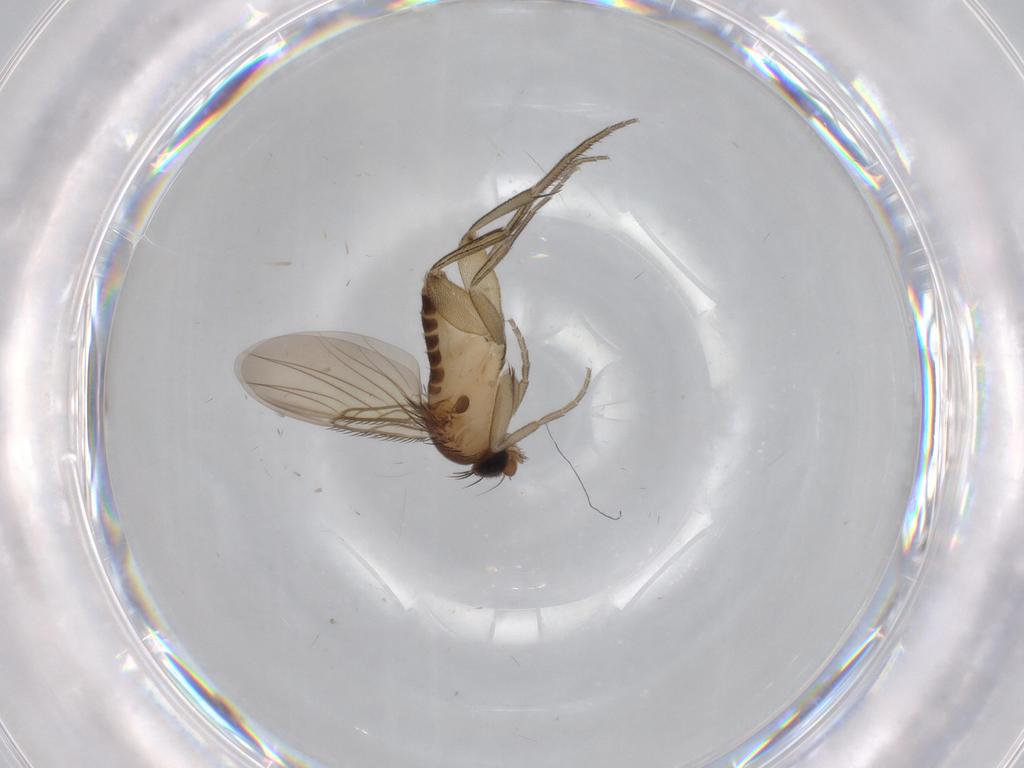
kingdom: Animalia
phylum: Arthropoda
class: Insecta
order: Diptera
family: Phoridae
